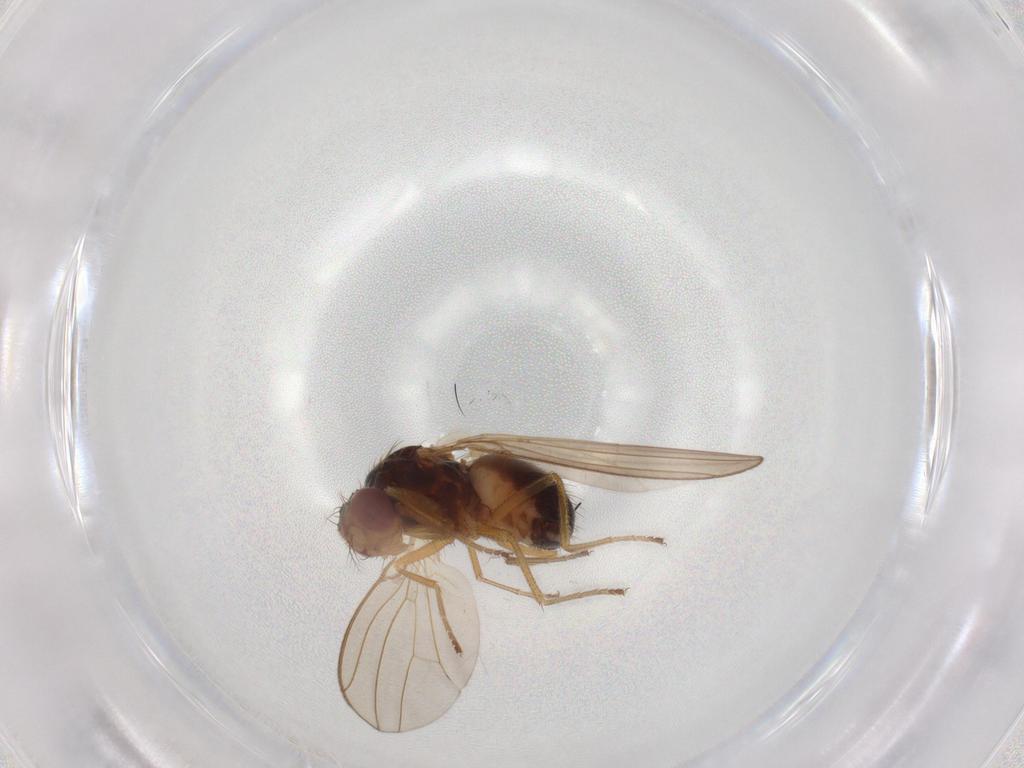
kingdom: Animalia
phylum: Arthropoda
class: Insecta
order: Diptera
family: Drosophilidae
